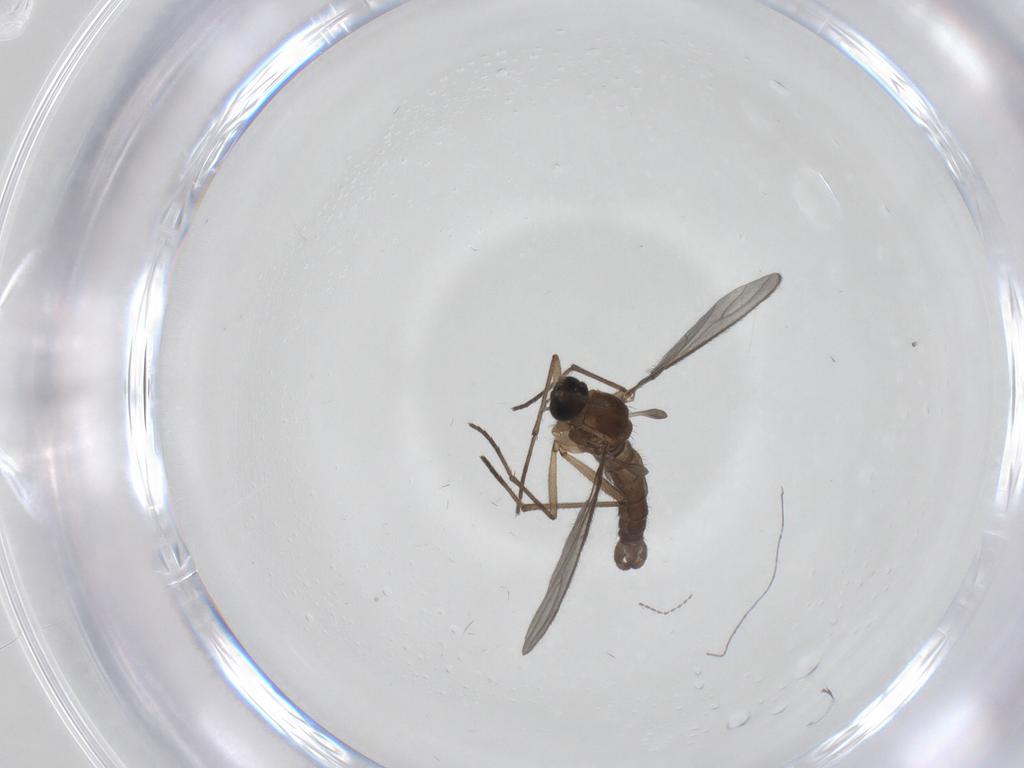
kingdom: Animalia
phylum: Arthropoda
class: Insecta
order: Diptera
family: Sciaridae
